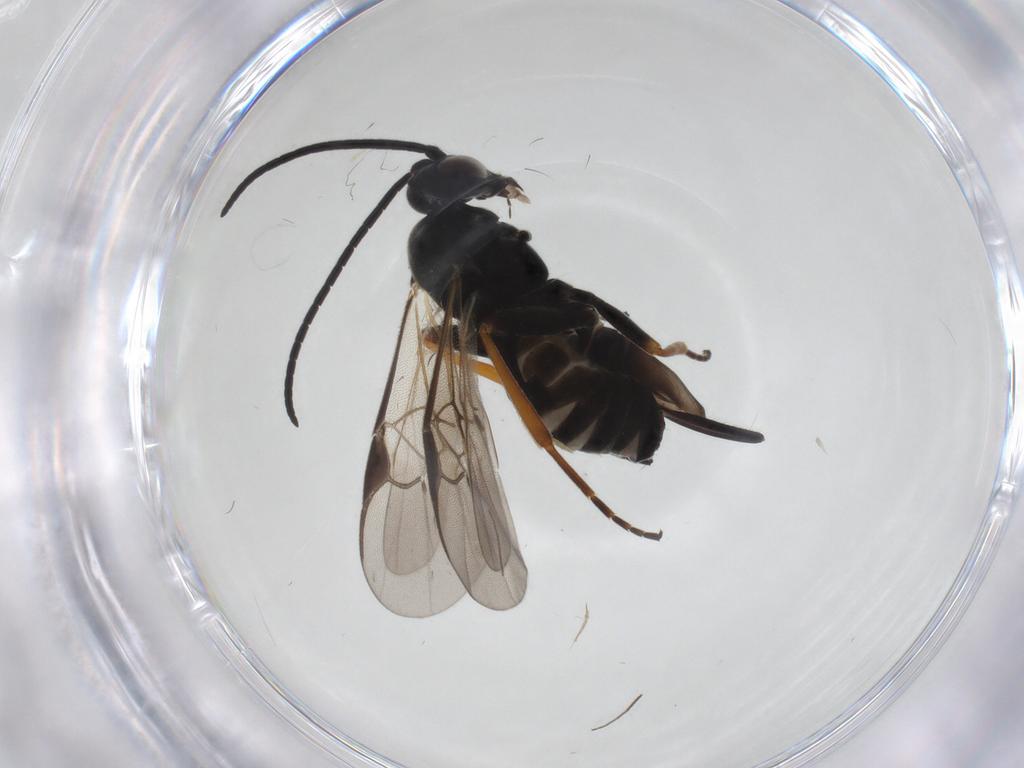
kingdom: Animalia
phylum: Arthropoda
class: Insecta
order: Hymenoptera
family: Braconidae
